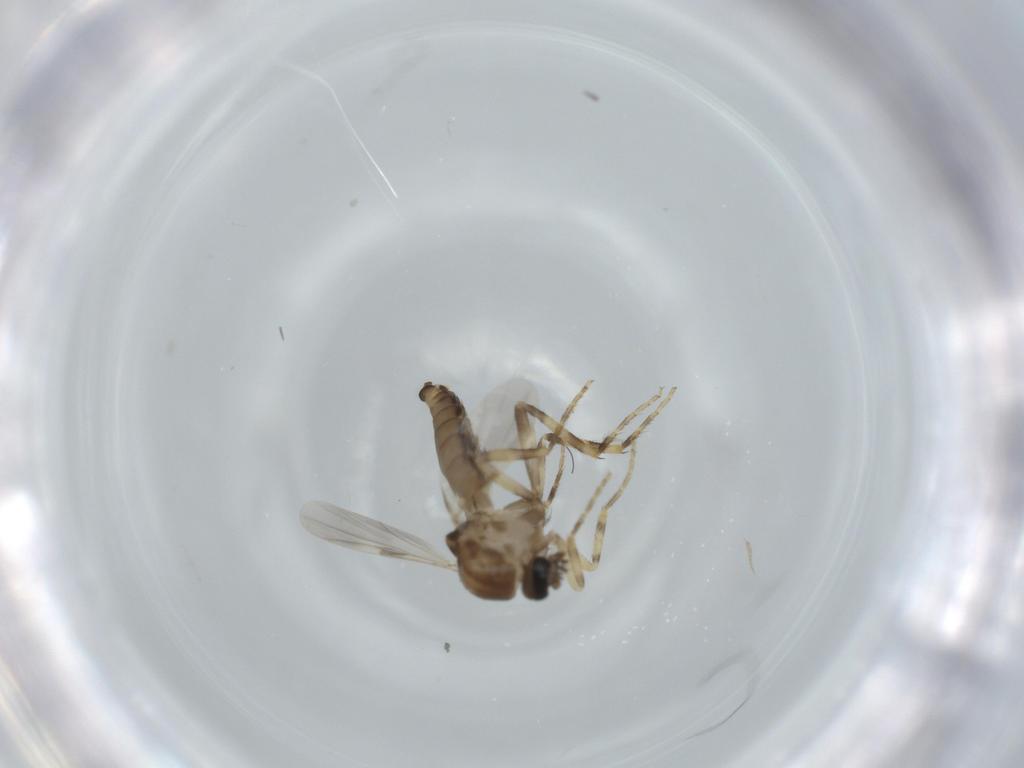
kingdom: Animalia
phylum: Arthropoda
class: Insecta
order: Diptera
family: Ceratopogonidae
